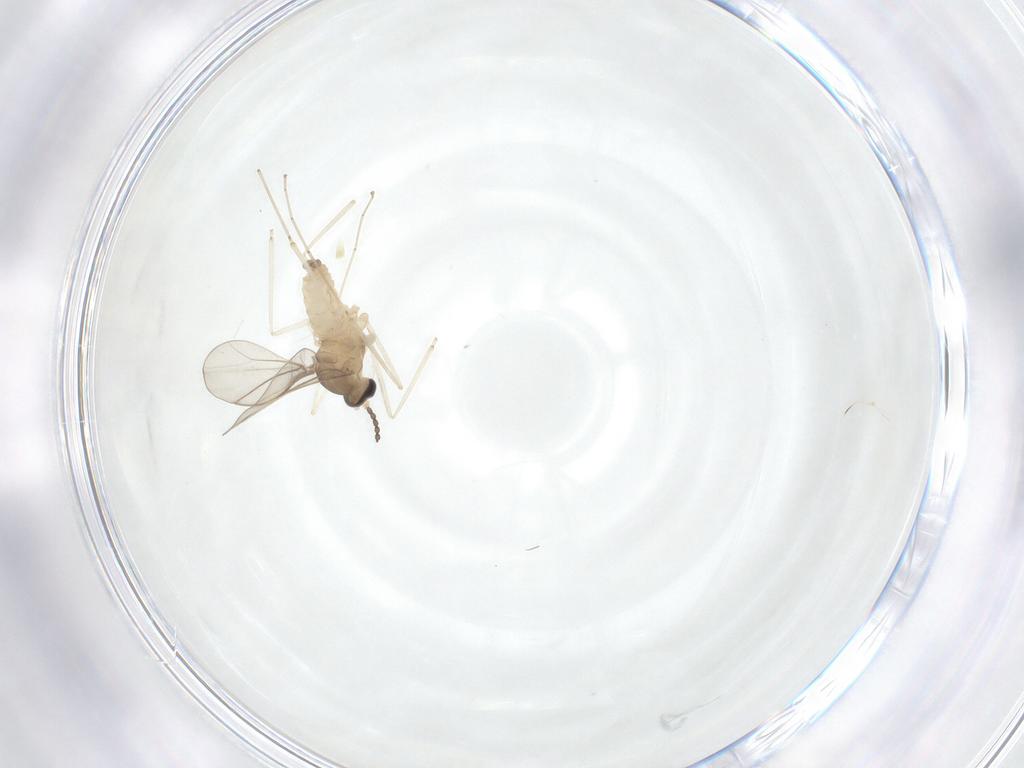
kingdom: Animalia
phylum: Arthropoda
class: Insecta
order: Diptera
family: Cecidomyiidae
